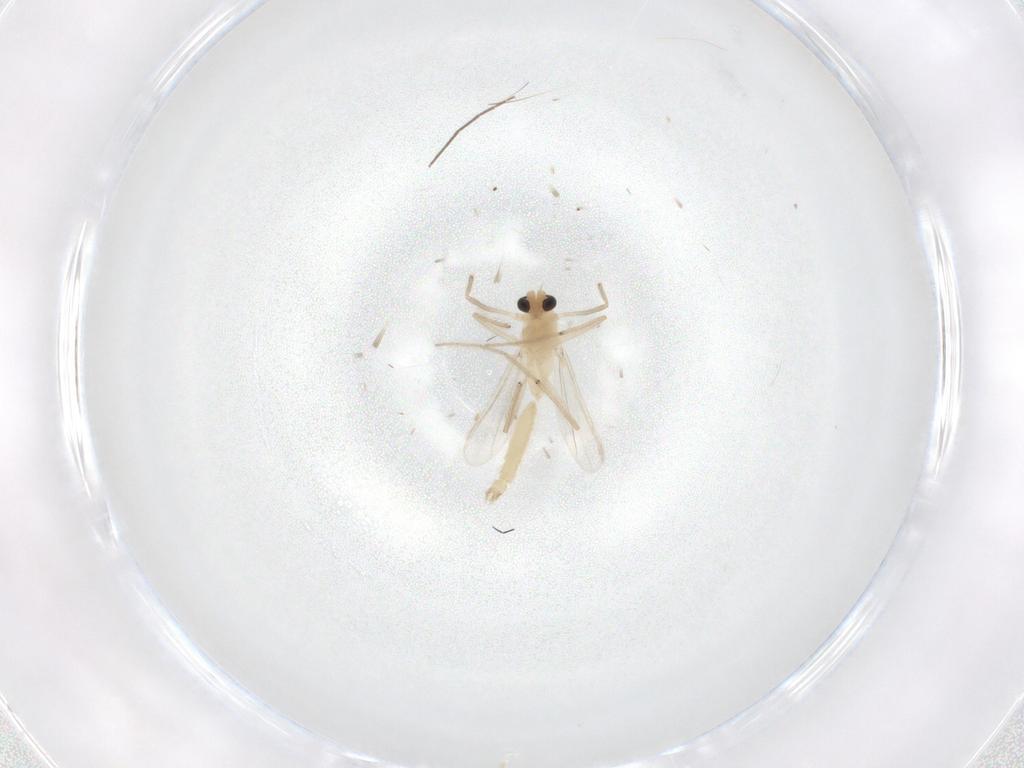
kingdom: Animalia
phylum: Arthropoda
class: Insecta
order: Diptera
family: Chironomidae
